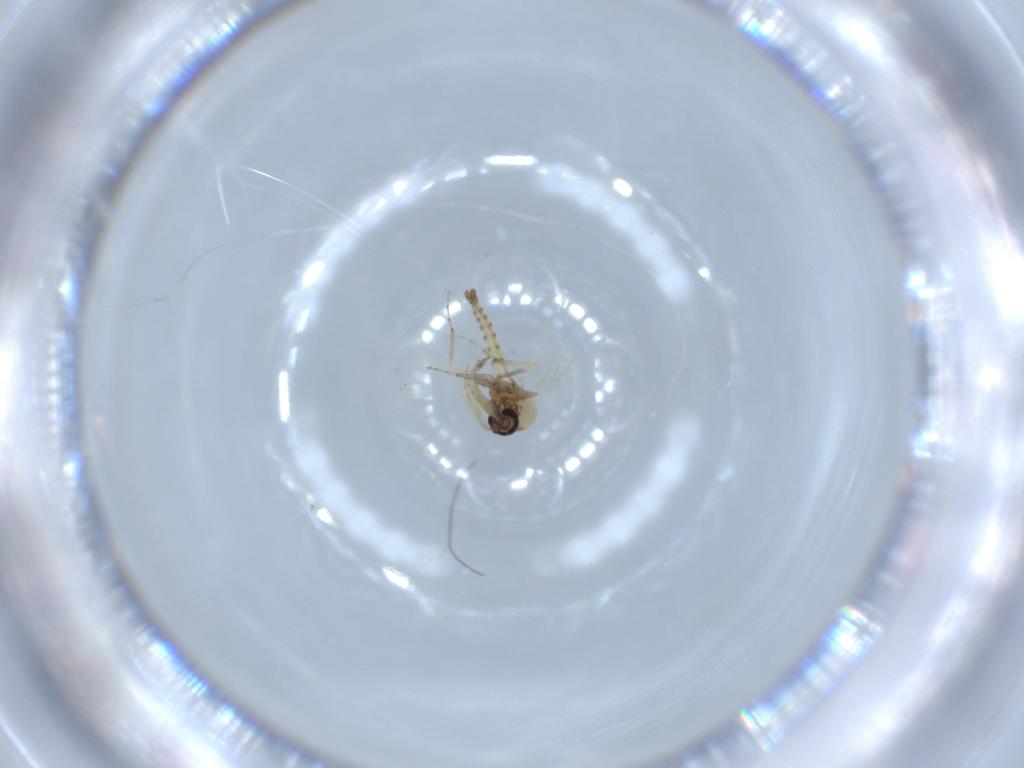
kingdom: Animalia
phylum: Arthropoda
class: Insecta
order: Diptera
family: Ceratopogonidae
